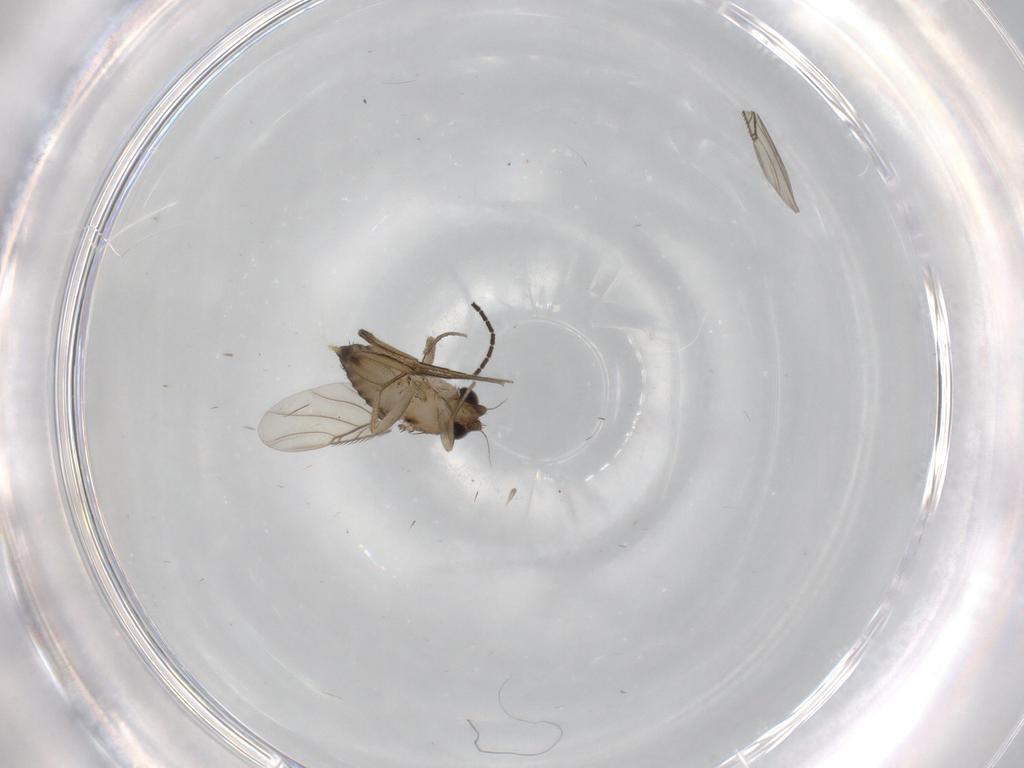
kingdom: Animalia
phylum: Arthropoda
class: Insecta
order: Diptera
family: Phoridae
